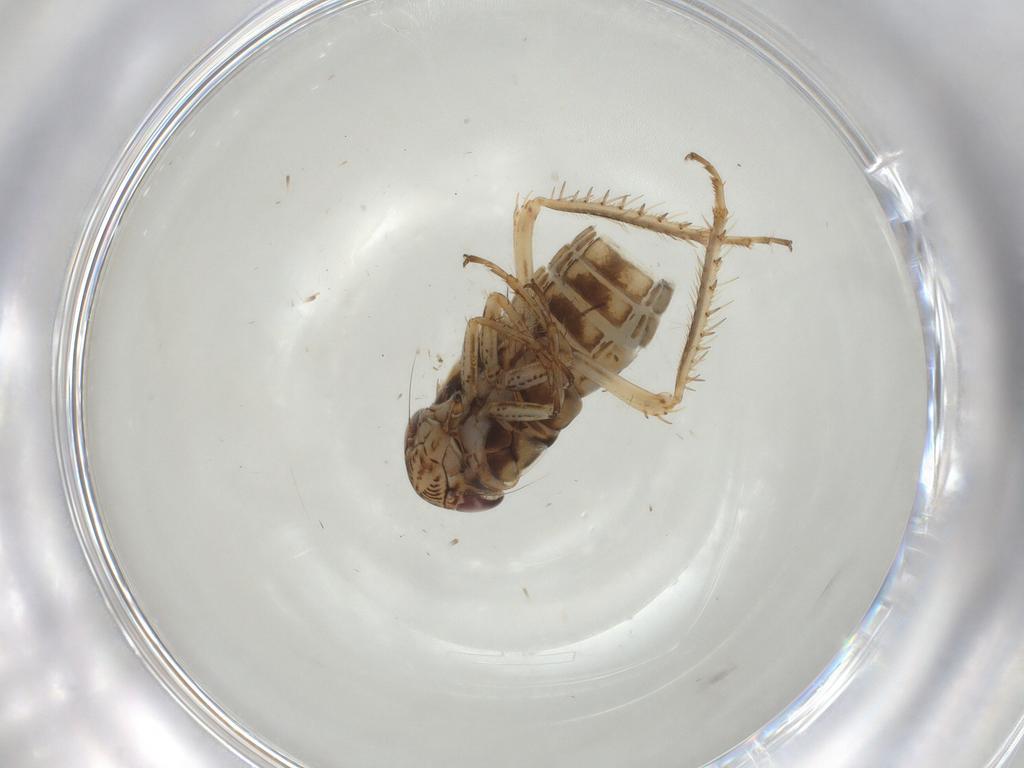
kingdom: Animalia
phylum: Arthropoda
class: Insecta
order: Hemiptera
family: Cicadellidae
